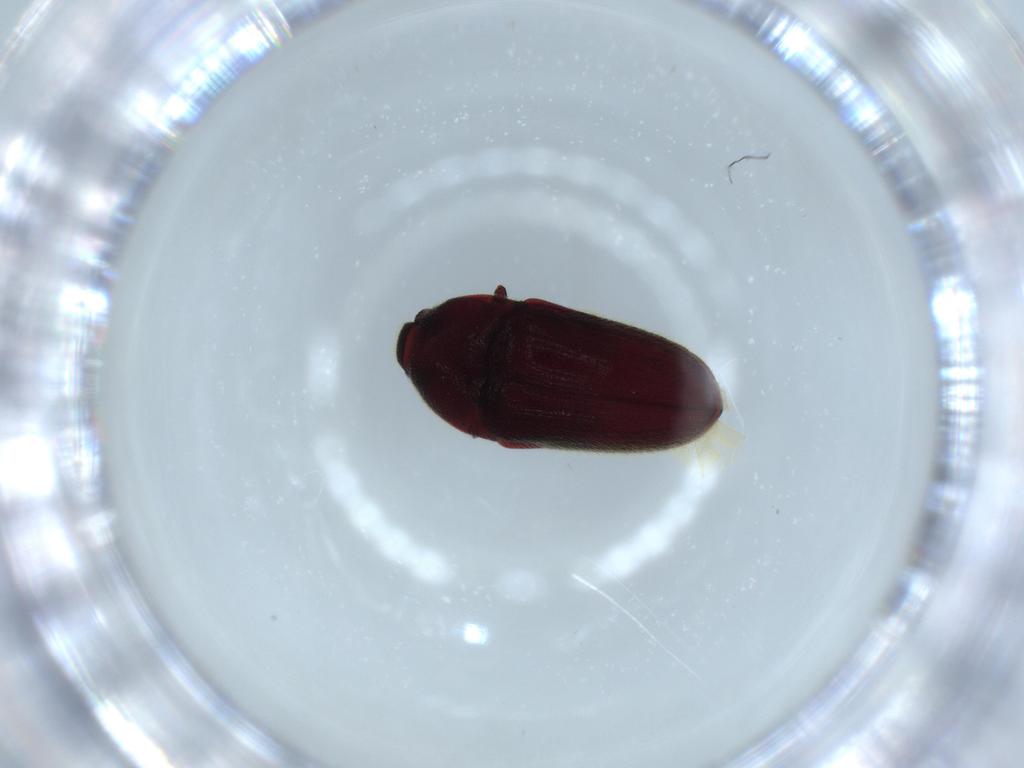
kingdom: Animalia
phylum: Arthropoda
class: Insecta
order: Coleoptera
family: Throscidae
